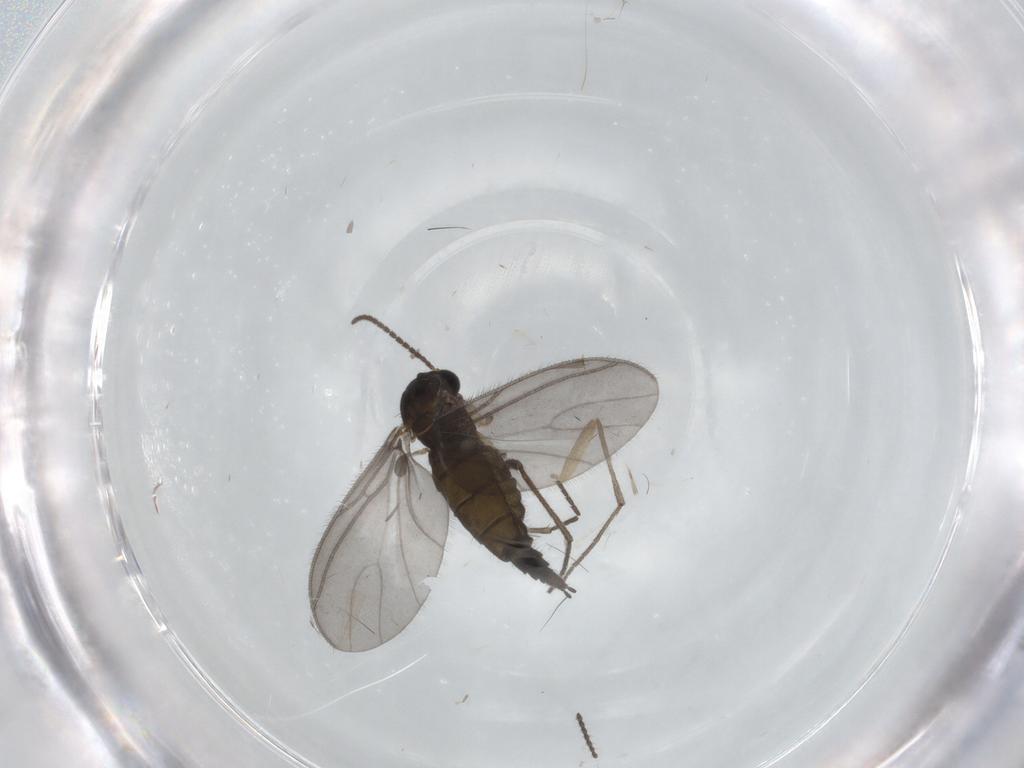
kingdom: Animalia
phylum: Arthropoda
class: Insecta
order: Diptera
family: Sciaridae
